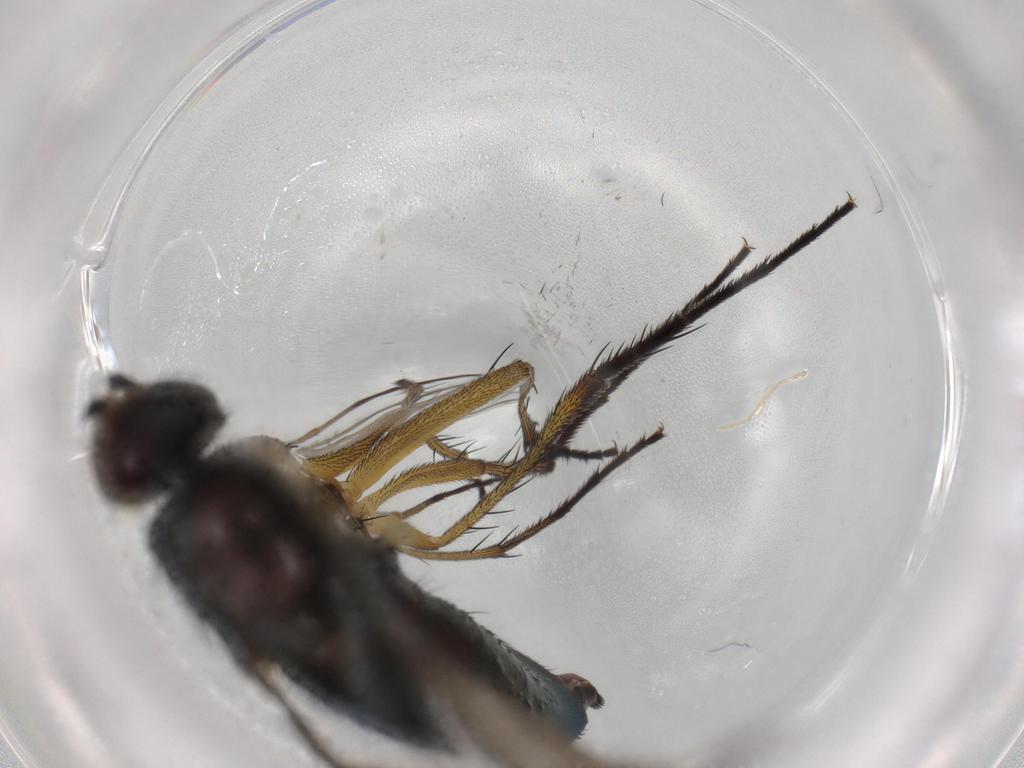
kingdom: Animalia
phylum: Arthropoda
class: Insecta
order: Diptera
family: Dolichopodidae
